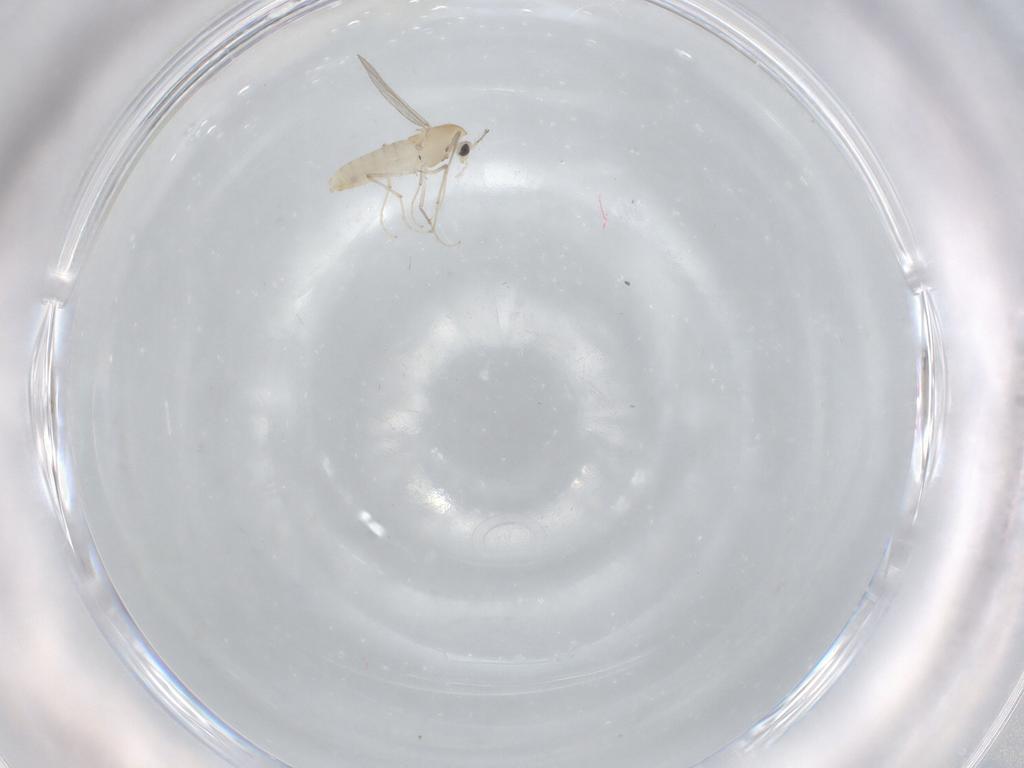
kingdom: Animalia
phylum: Arthropoda
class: Insecta
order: Diptera
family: Chironomidae
